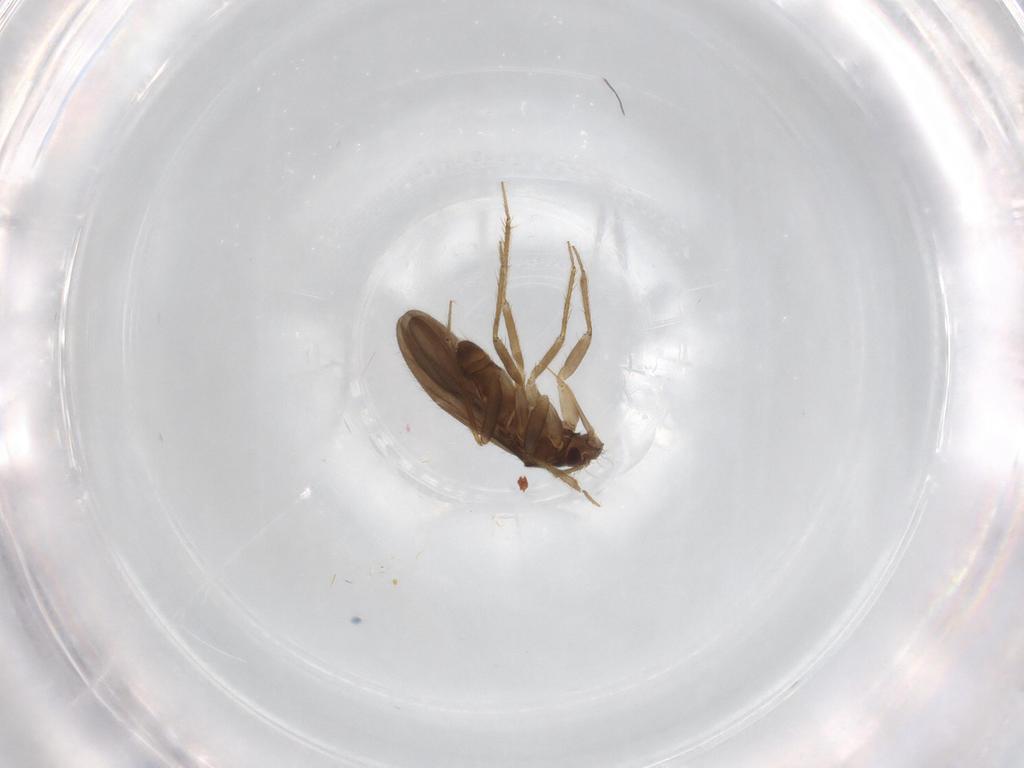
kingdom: Animalia
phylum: Arthropoda
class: Insecta
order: Hemiptera
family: Ceratocombidae
